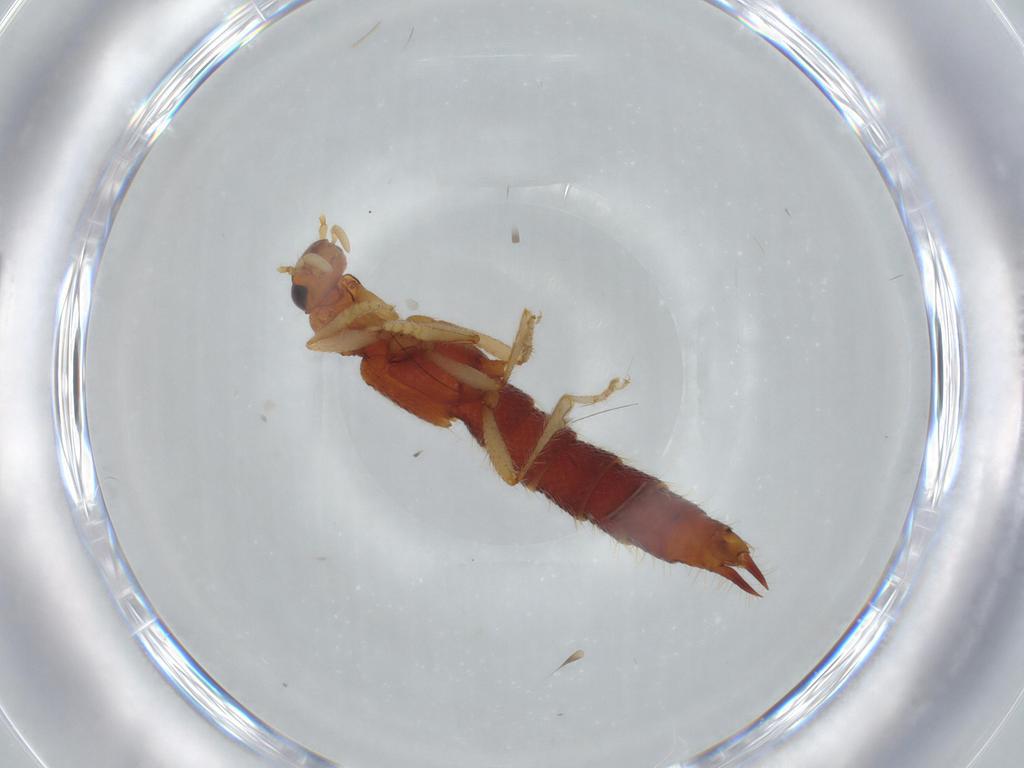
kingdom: Animalia
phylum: Arthropoda
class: Insecta
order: Coleoptera
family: Staphylinidae
